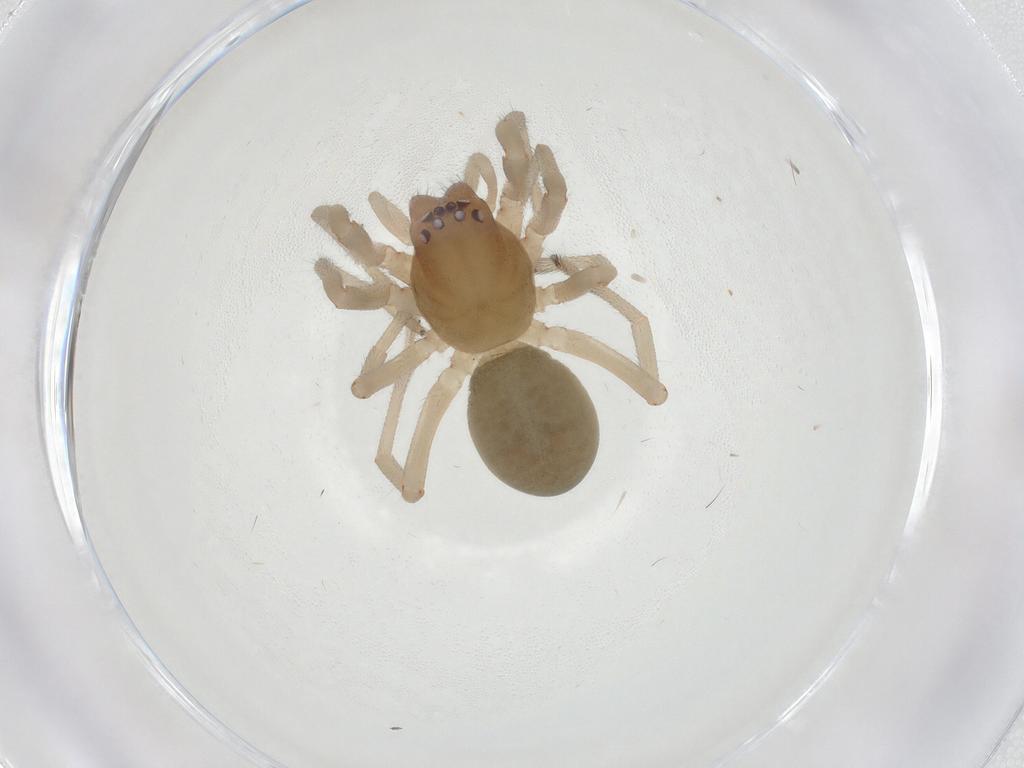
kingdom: Animalia
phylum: Arthropoda
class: Arachnida
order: Araneae
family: Trachelidae
